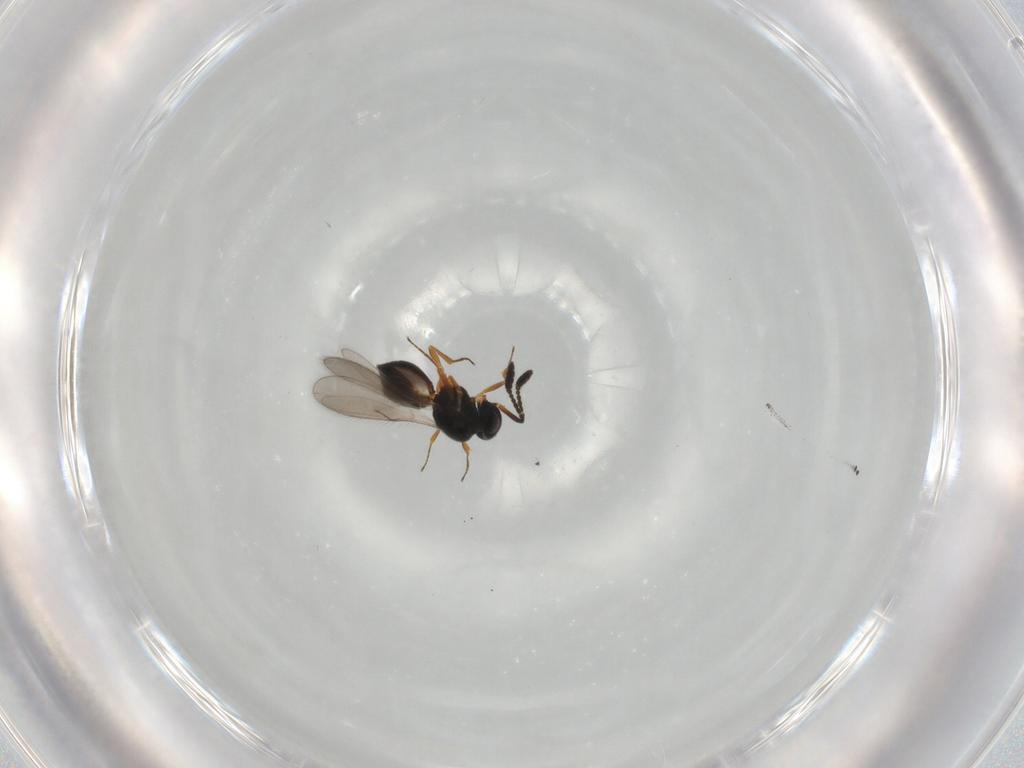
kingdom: Animalia
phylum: Arthropoda
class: Insecta
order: Hymenoptera
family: Scelionidae
